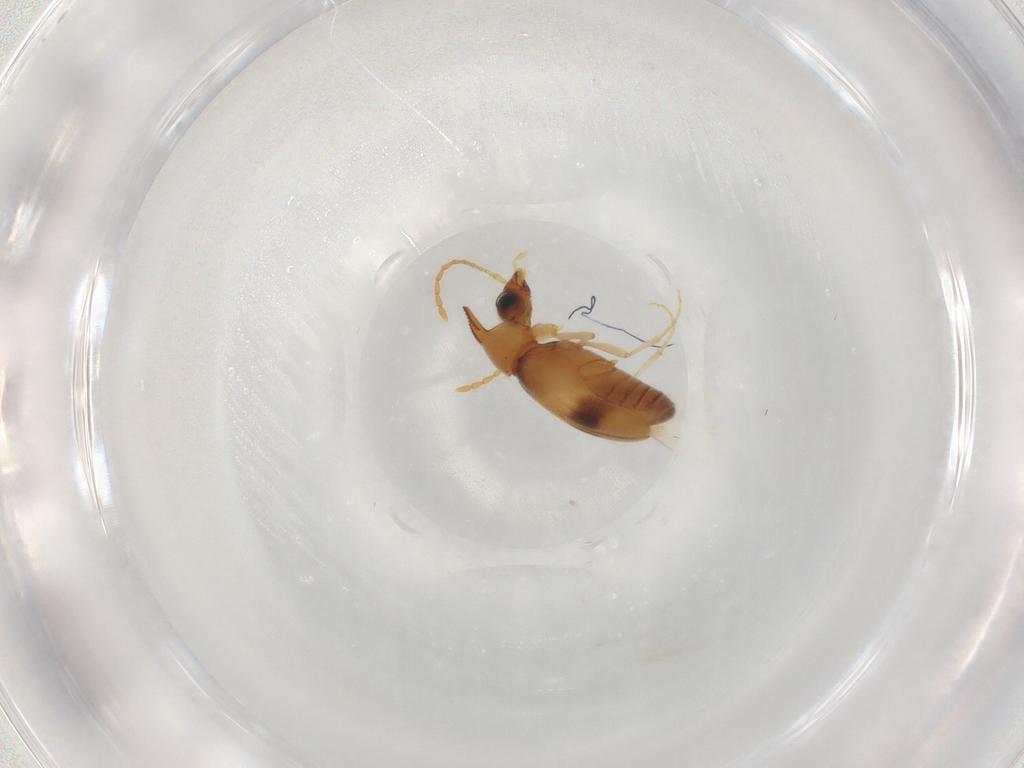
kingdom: Animalia
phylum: Arthropoda
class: Insecta
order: Coleoptera
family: Anthicidae
